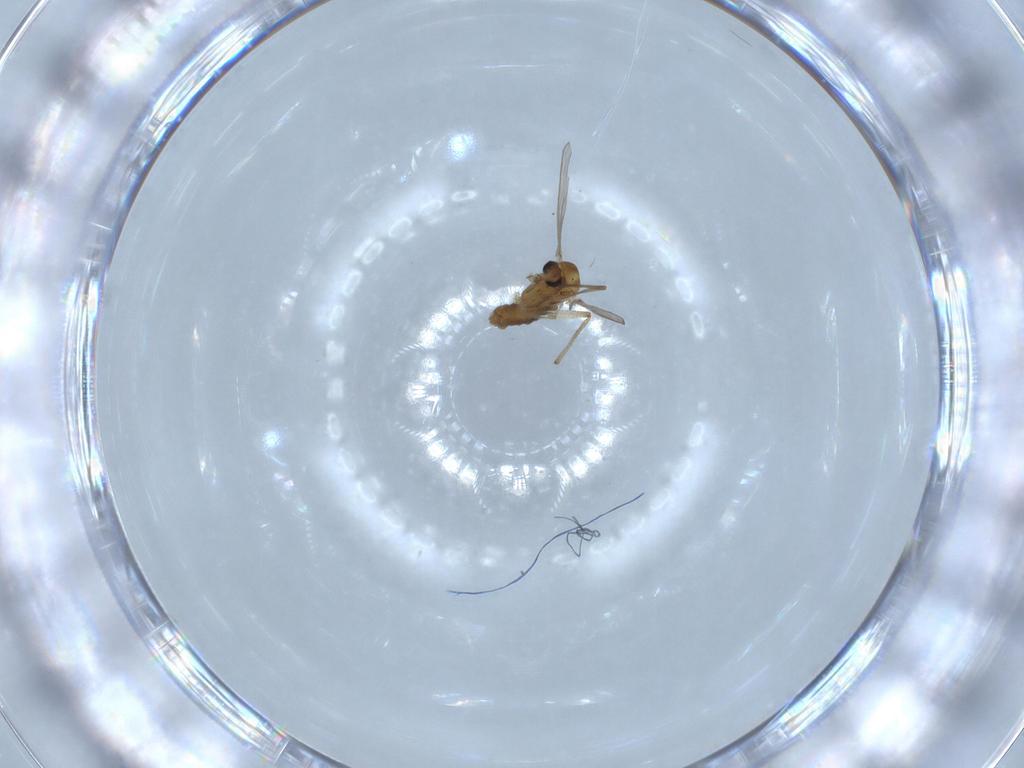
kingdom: Animalia
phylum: Arthropoda
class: Insecta
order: Diptera
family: Chironomidae
